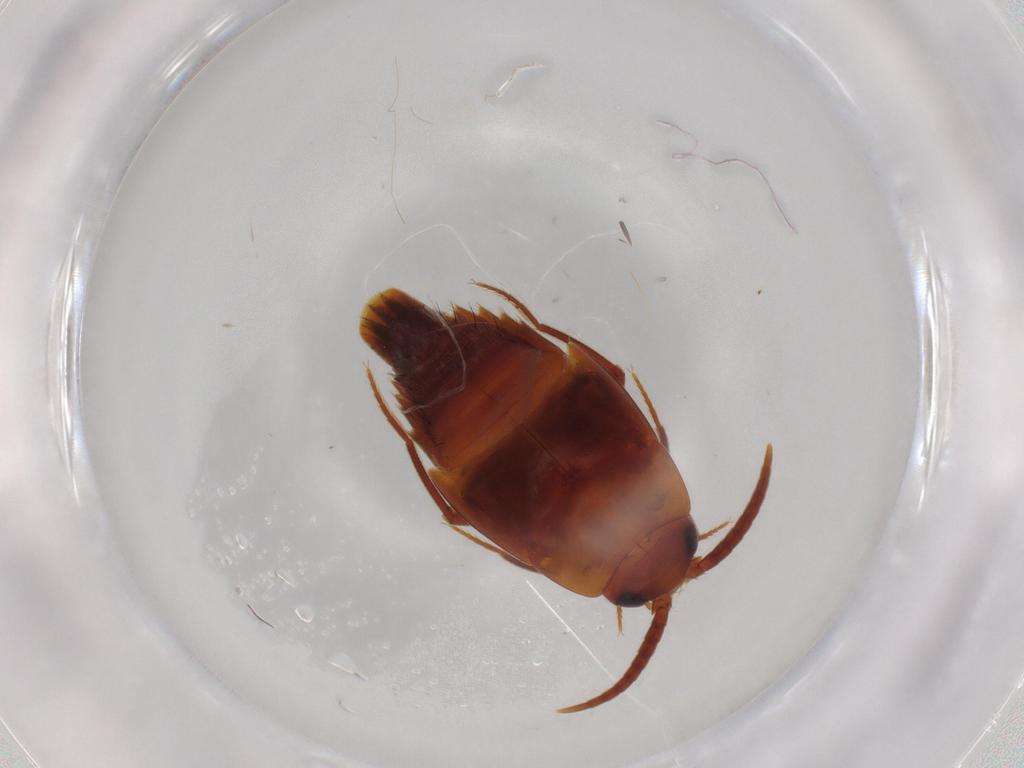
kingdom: Animalia
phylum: Arthropoda
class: Insecta
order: Coleoptera
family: Staphylinidae
